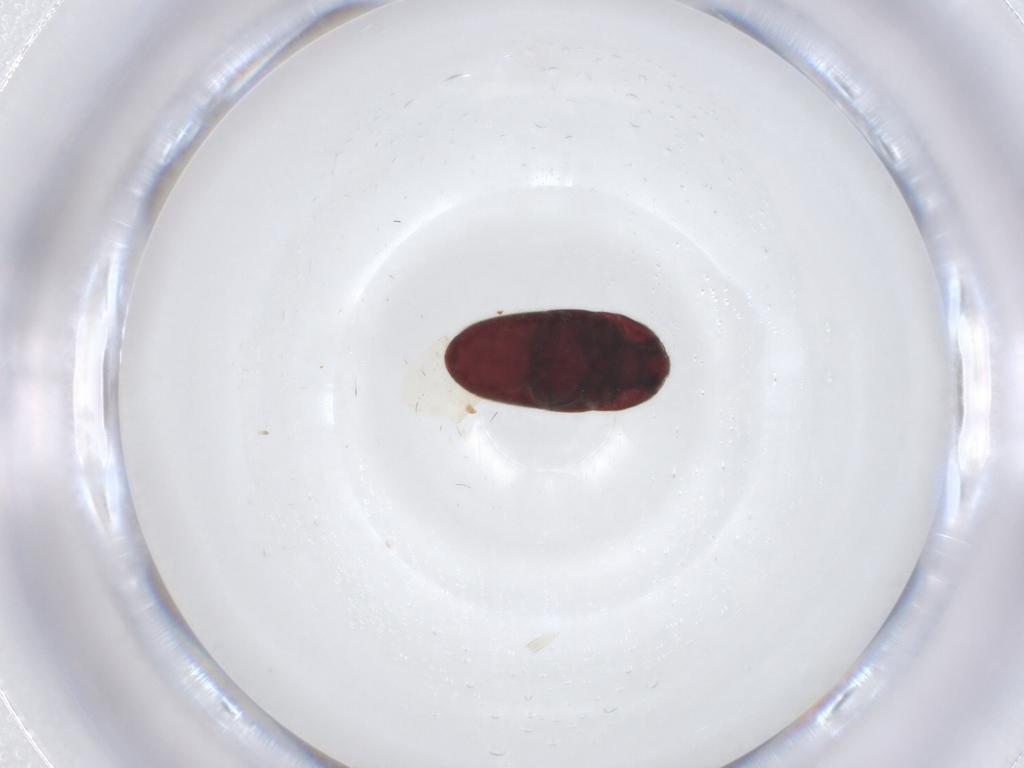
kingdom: Animalia
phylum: Arthropoda
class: Insecta
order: Coleoptera
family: Throscidae
